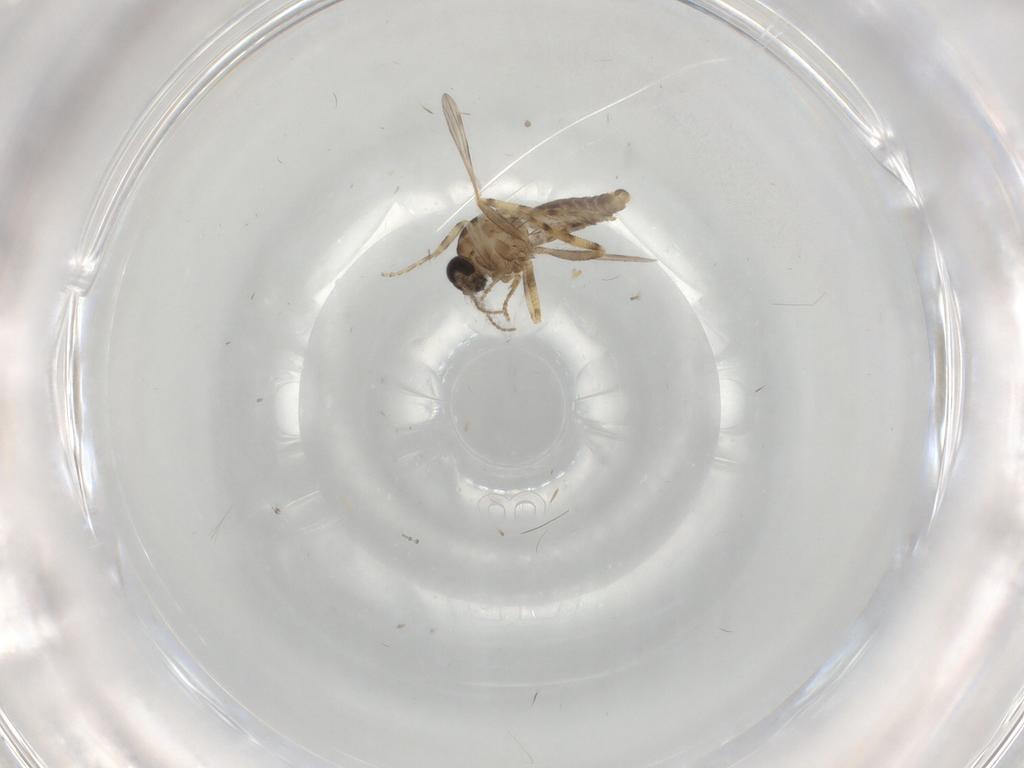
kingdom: Animalia
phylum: Arthropoda
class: Insecta
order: Diptera
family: Ceratopogonidae
